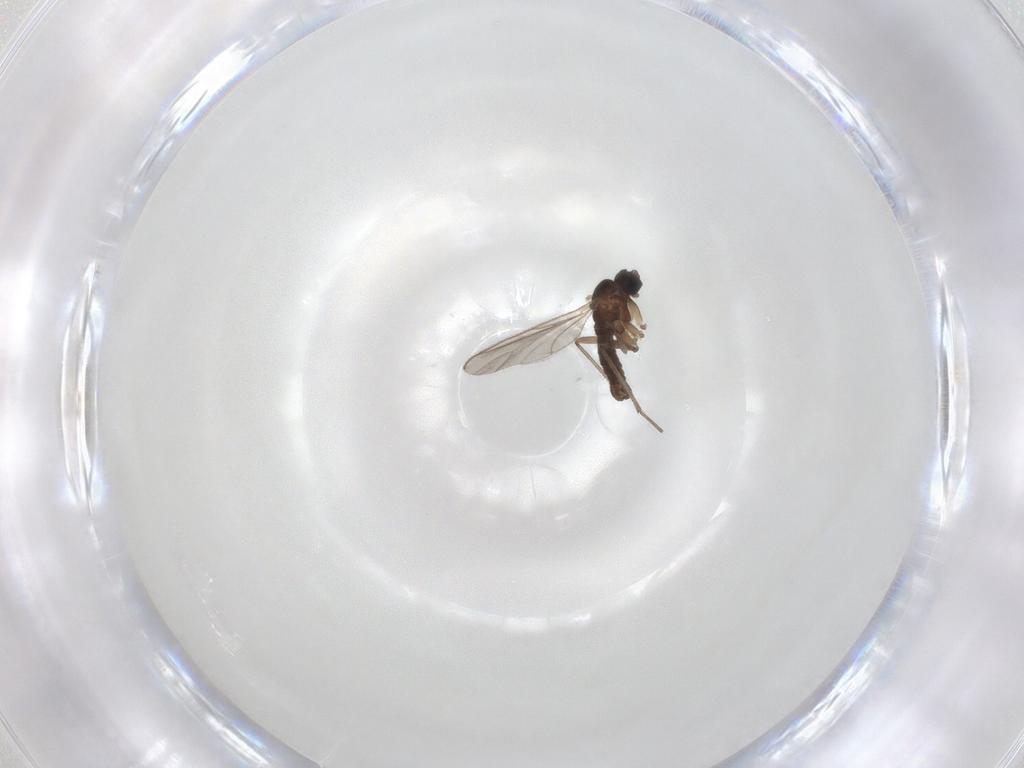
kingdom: Animalia
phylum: Arthropoda
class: Insecta
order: Diptera
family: Sciaridae
